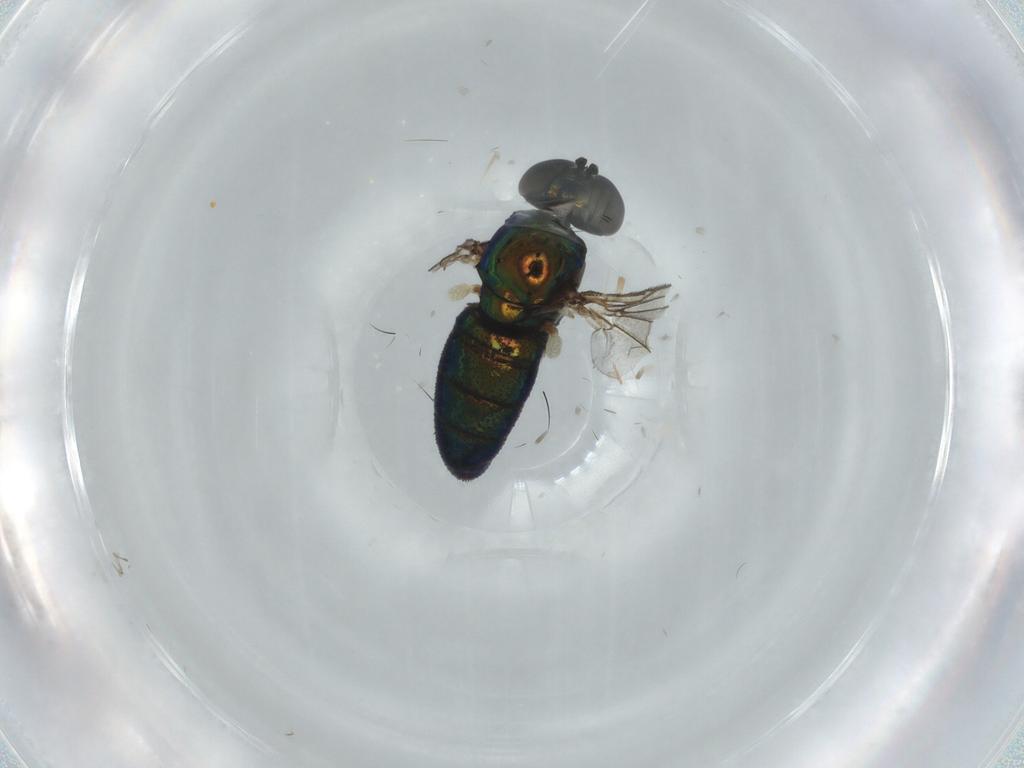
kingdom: Animalia
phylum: Arthropoda
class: Insecta
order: Diptera
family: Dolichopodidae
